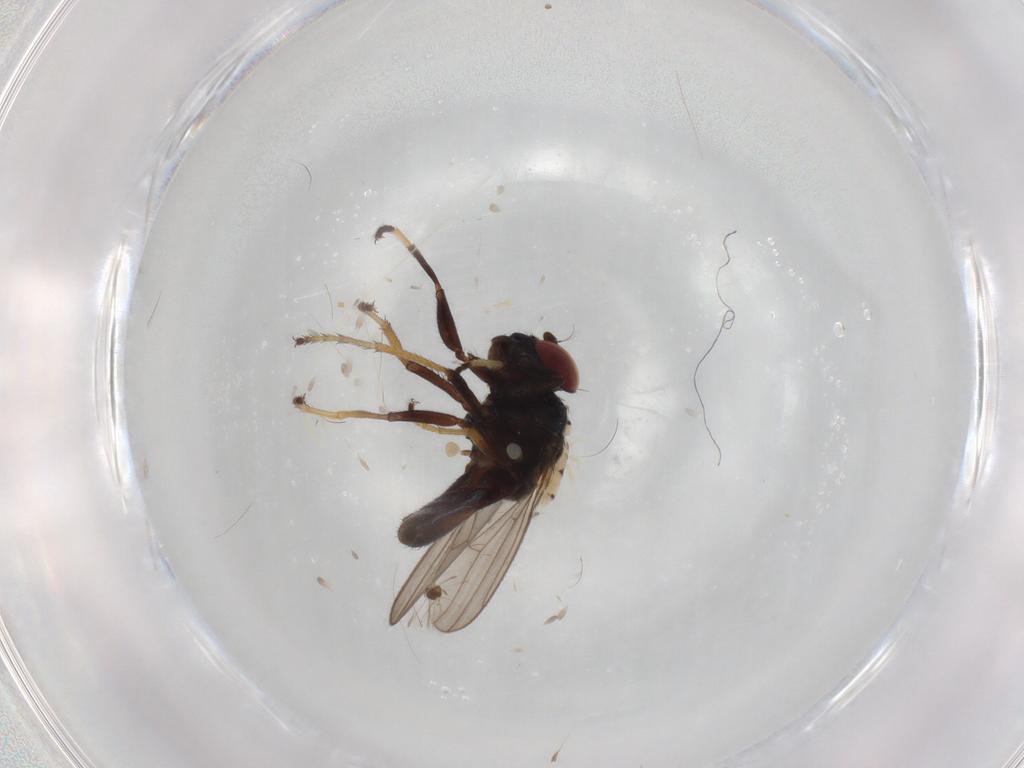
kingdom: Animalia
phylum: Arthropoda
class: Insecta
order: Diptera
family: Ephydridae
